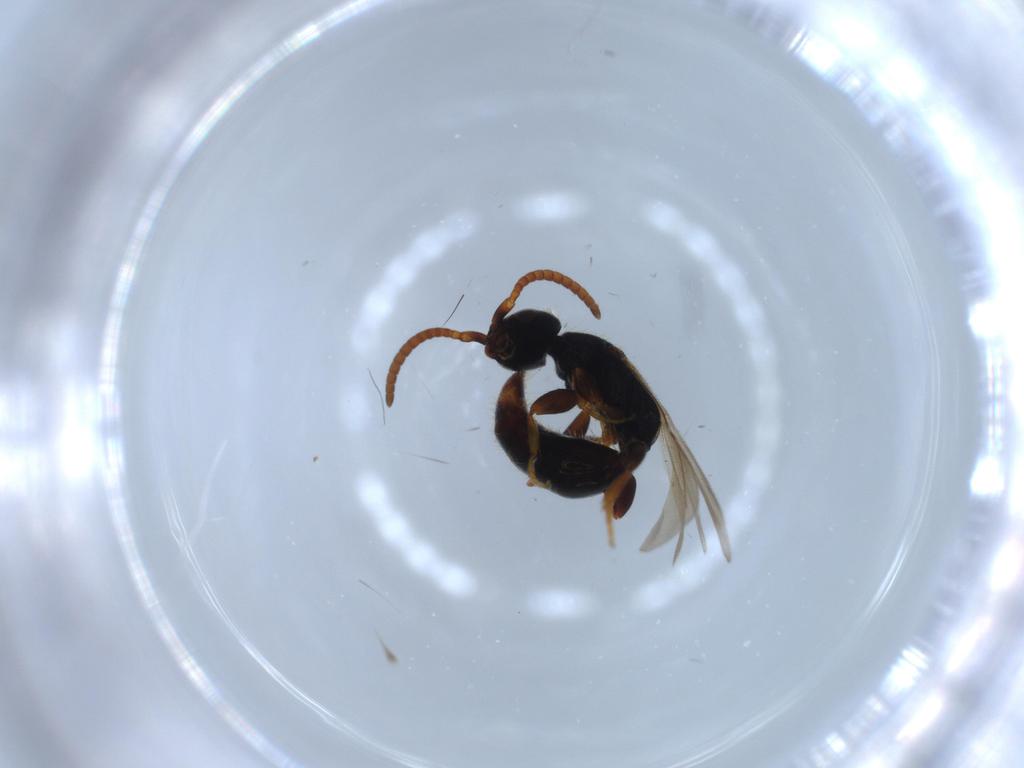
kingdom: Animalia
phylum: Arthropoda
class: Insecta
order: Hymenoptera
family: Bethylidae
